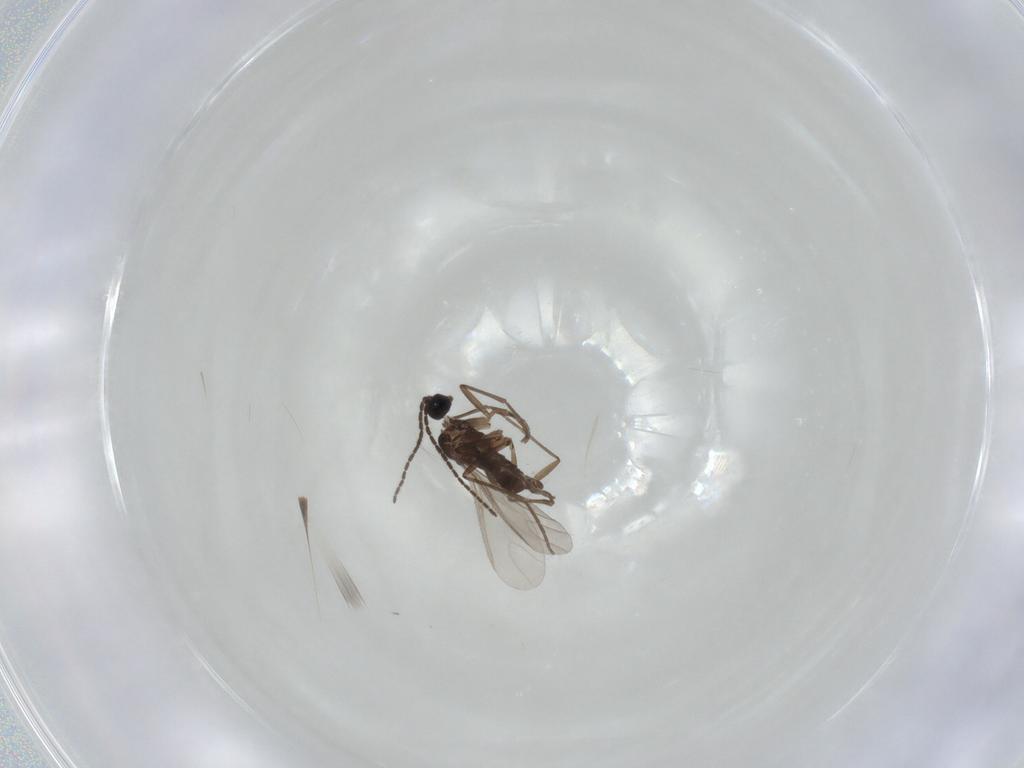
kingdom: Animalia
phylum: Arthropoda
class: Insecta
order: Diptera
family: Sciaridae
